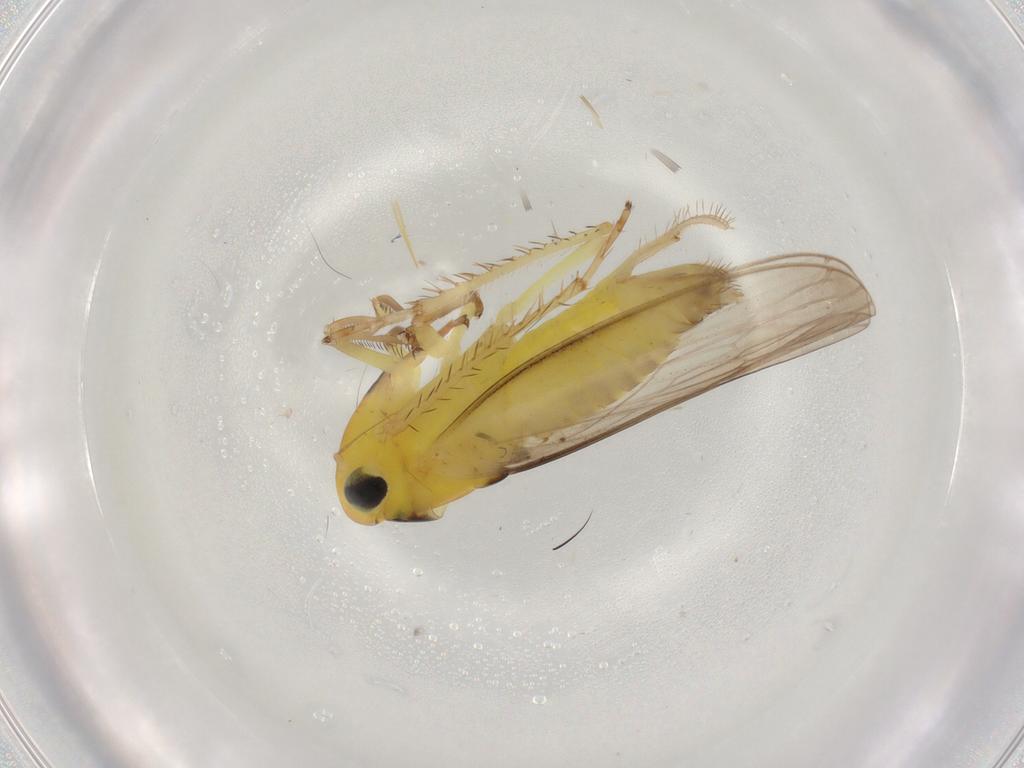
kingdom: Animalia
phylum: Arthropoda
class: Insecta
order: Hemiptera
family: Cicadellidae
